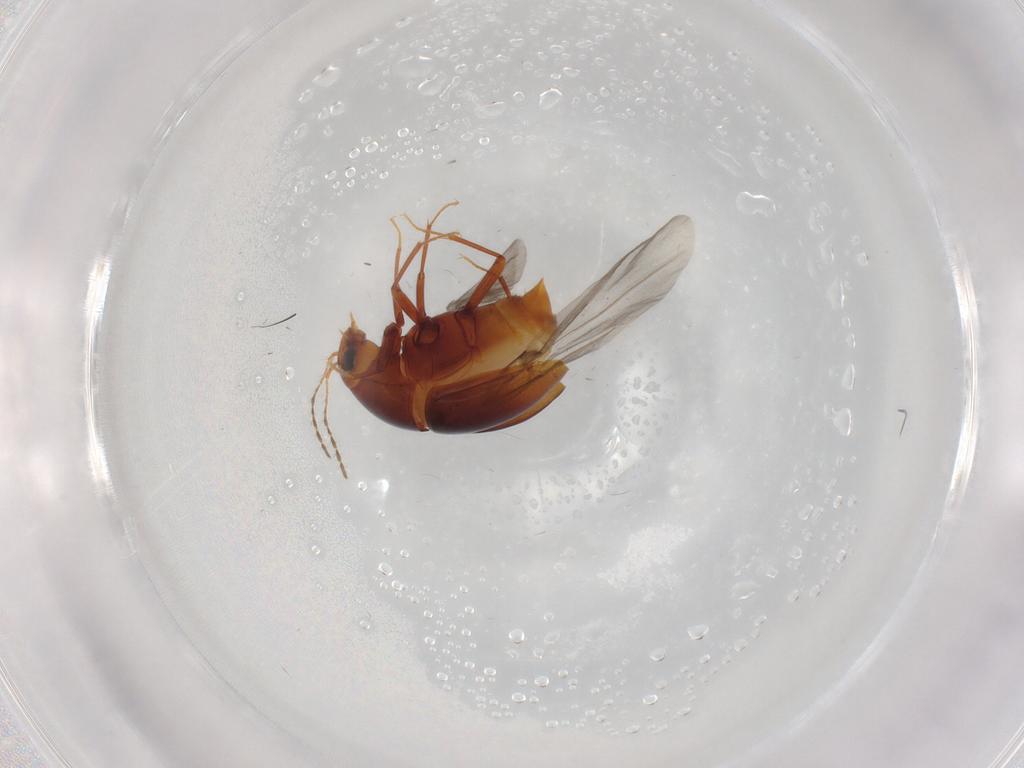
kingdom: Animalia
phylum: Arthropoda
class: Insecta
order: Coleoptera
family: Staphylinidae
